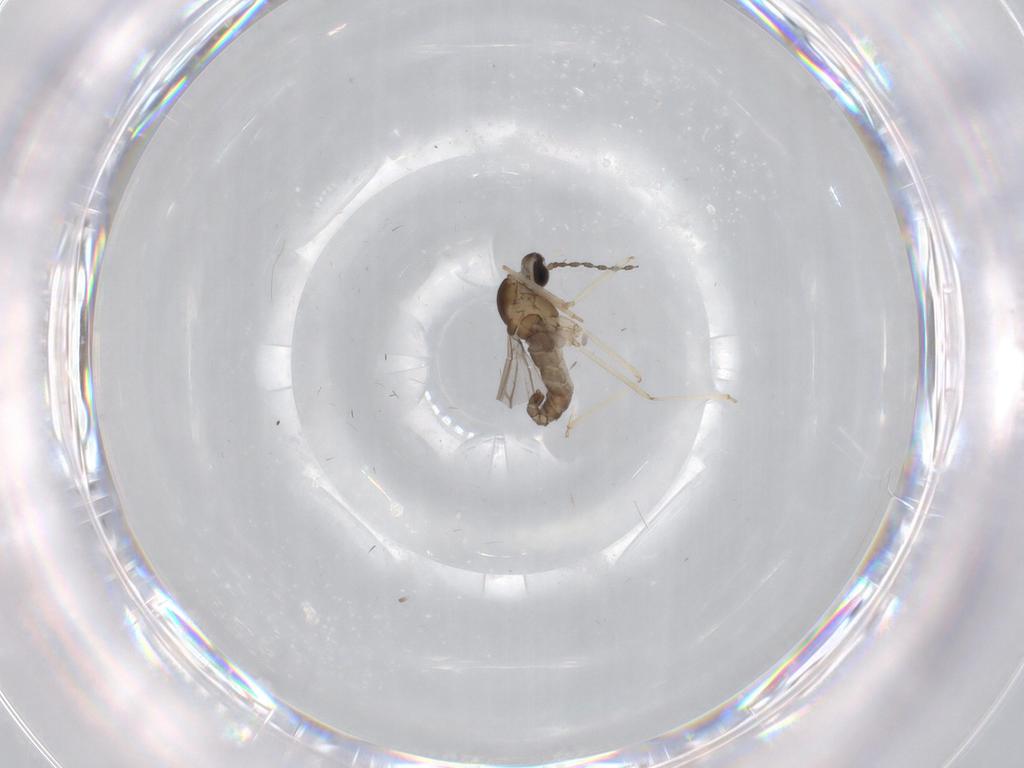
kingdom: Animalia
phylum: Arthropoda
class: Insecta
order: Diptera
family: Cecidomyiidae
